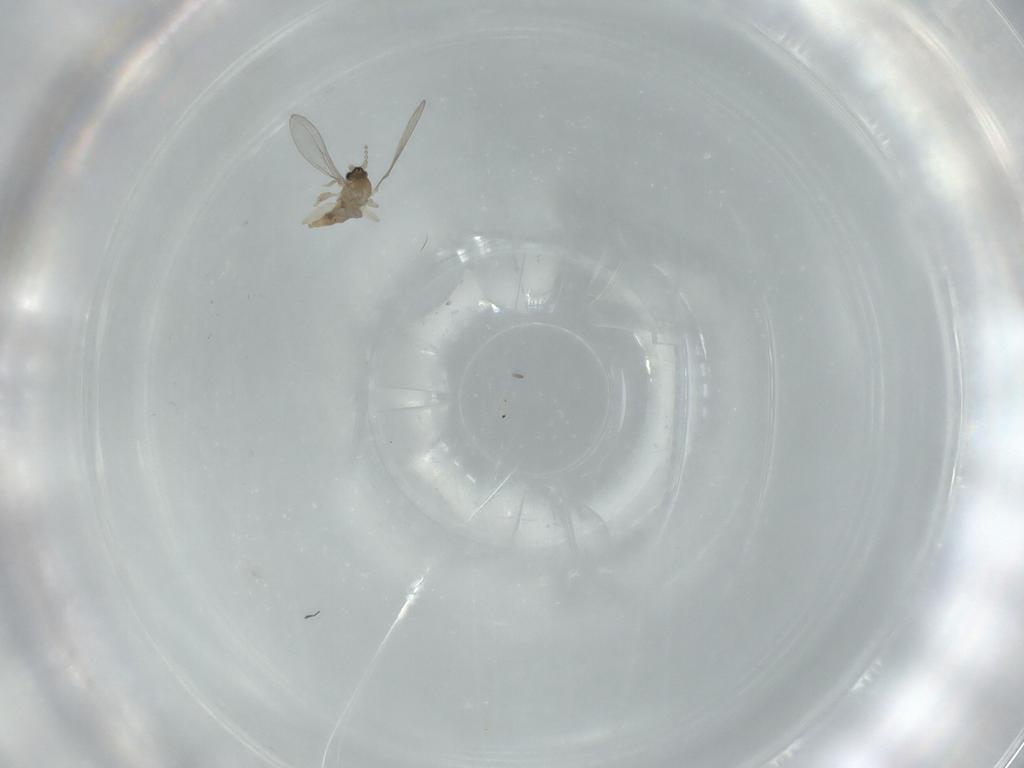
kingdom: Animalia
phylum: Arthropoda
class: Insecta
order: Diptera
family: Cecidomyiidae
